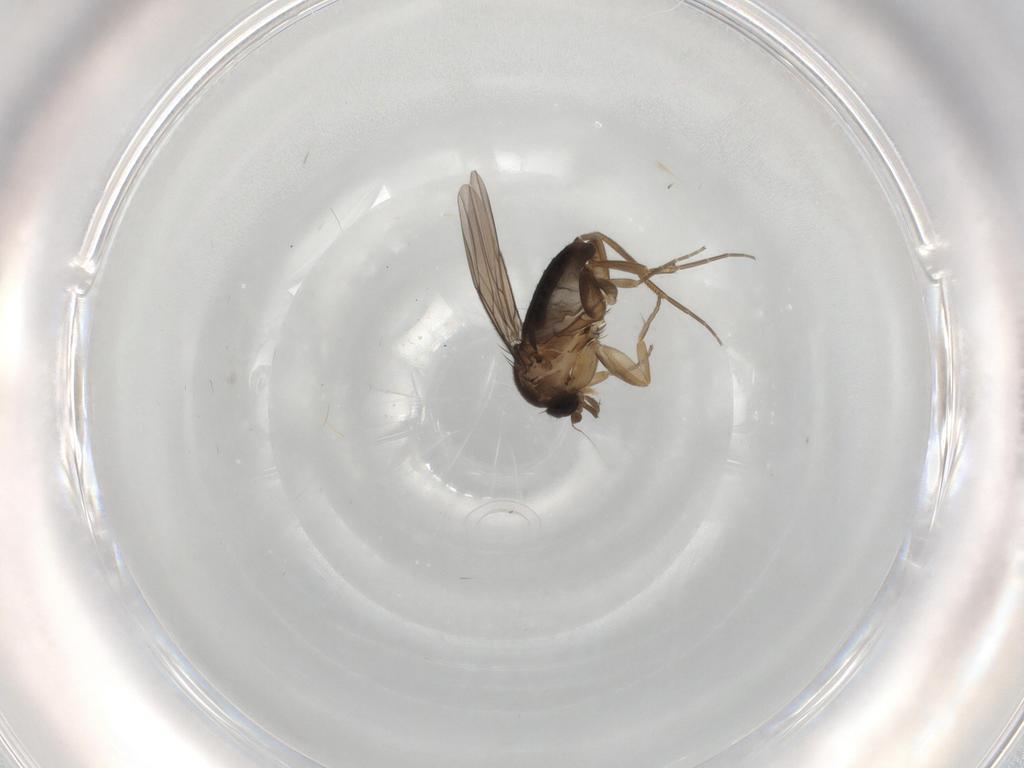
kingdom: Animalia
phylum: Arthropoda
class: Insecta
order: Diptera
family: Phoridae
